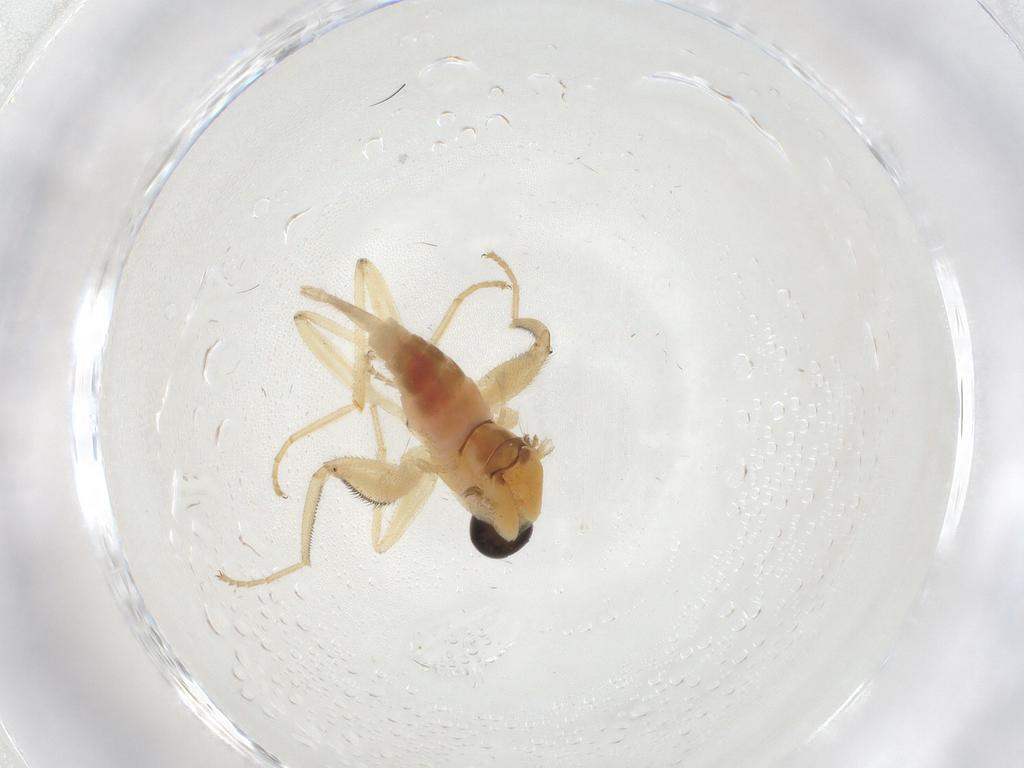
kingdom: Animalia
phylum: Arthropoda
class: Insecta
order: Diptera
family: Hybotidae
